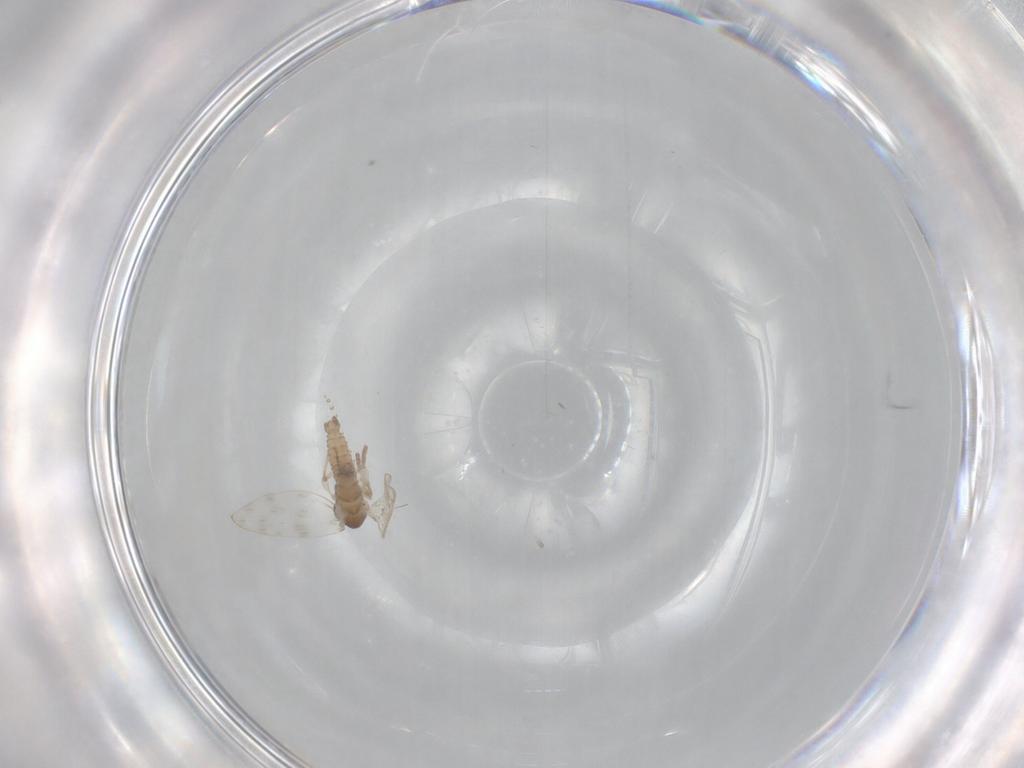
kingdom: Animalia
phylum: Arthropoda
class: Insecta
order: Diptera
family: Psychodidae
